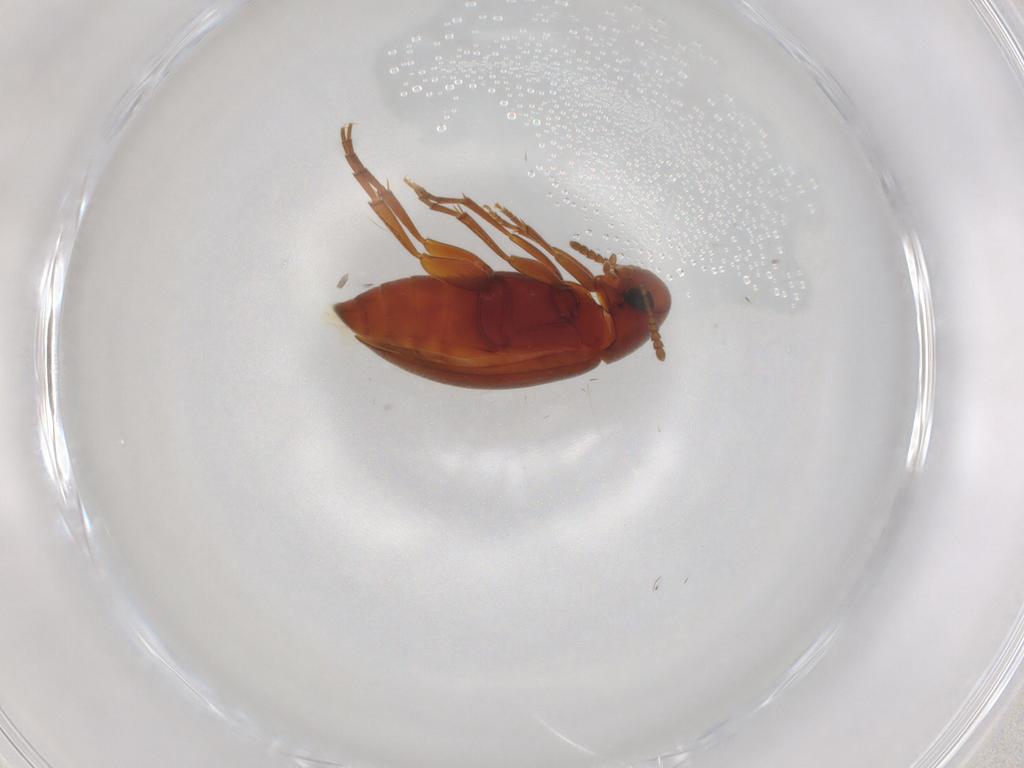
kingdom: Animalia
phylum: Arthropoda
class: Insecta
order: Coleoptera
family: Scraptiidae
